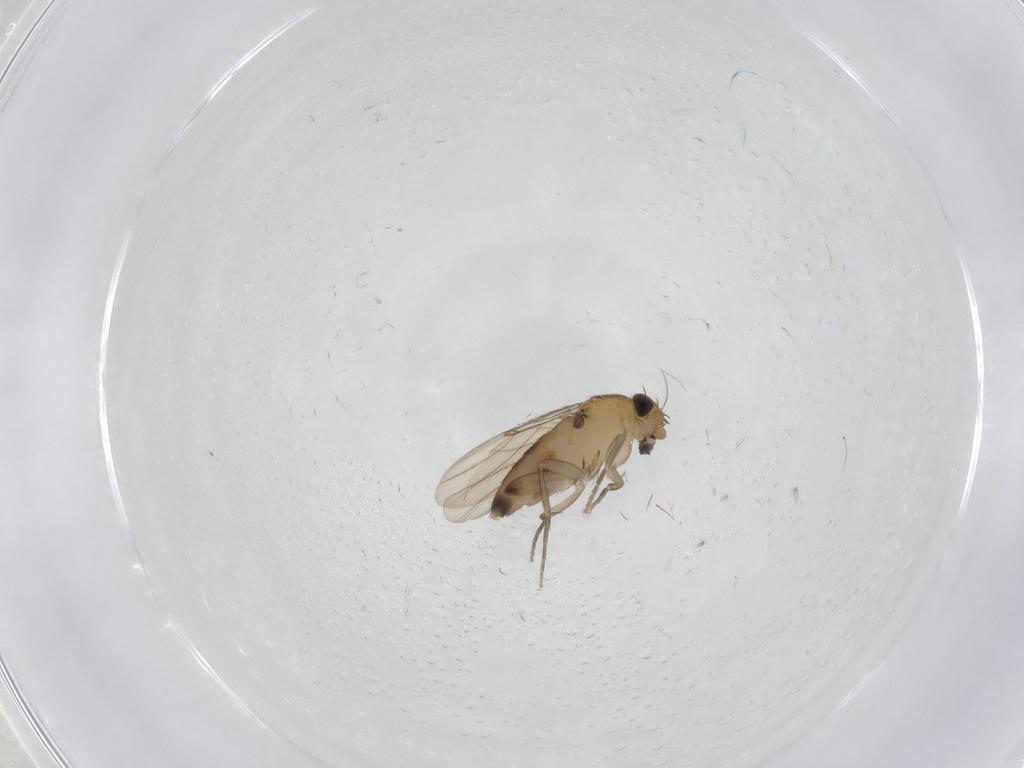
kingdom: Animalia
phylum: Arthropoda
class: Insecta
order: Diptera
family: Phoridae
